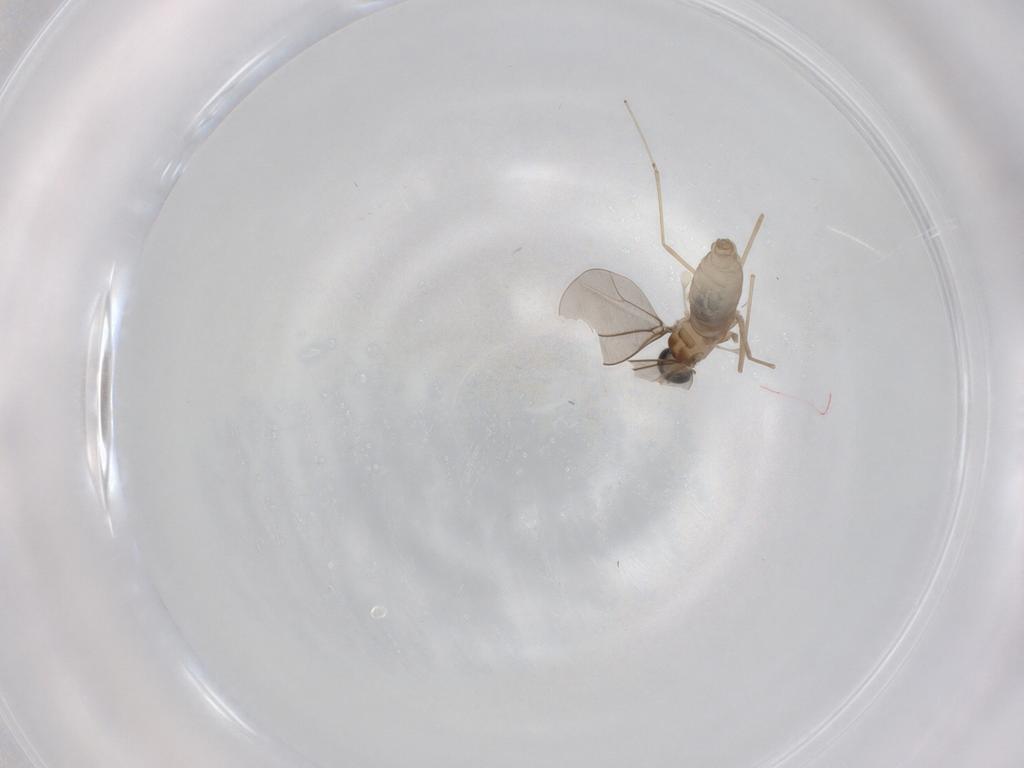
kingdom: Animalia
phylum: Arthropoda
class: Insecta
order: Diptera
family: Cecidomyiidae
